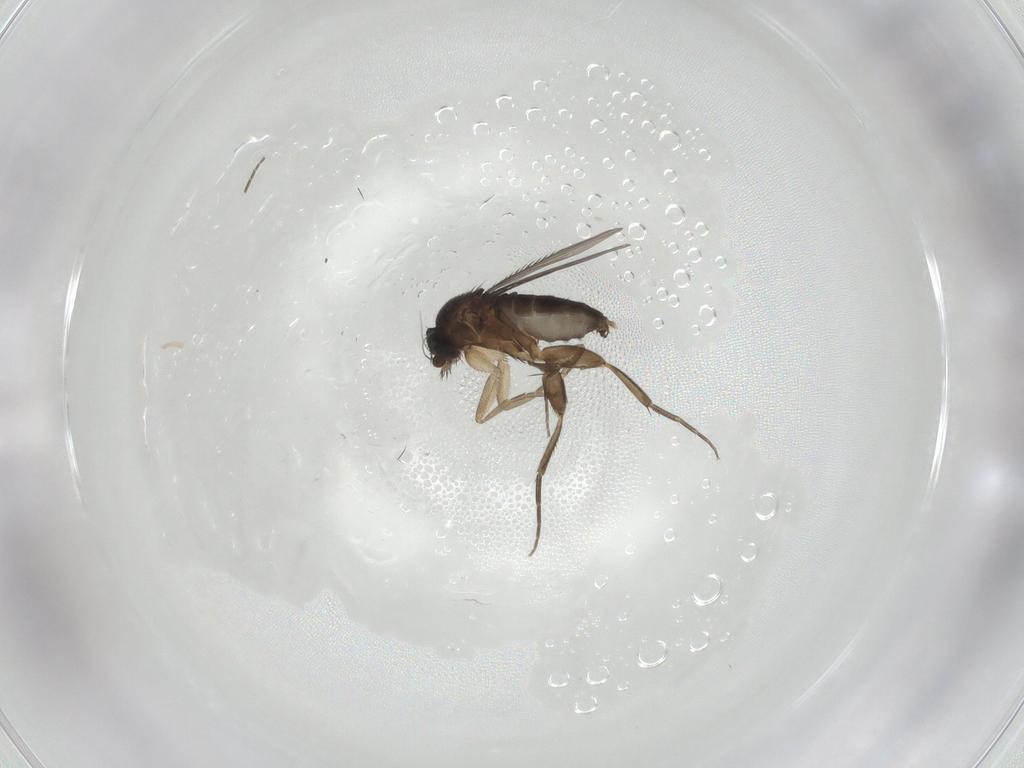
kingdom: Animalia
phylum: Arthropoda
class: Insecta
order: Diptera
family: Phoridae
